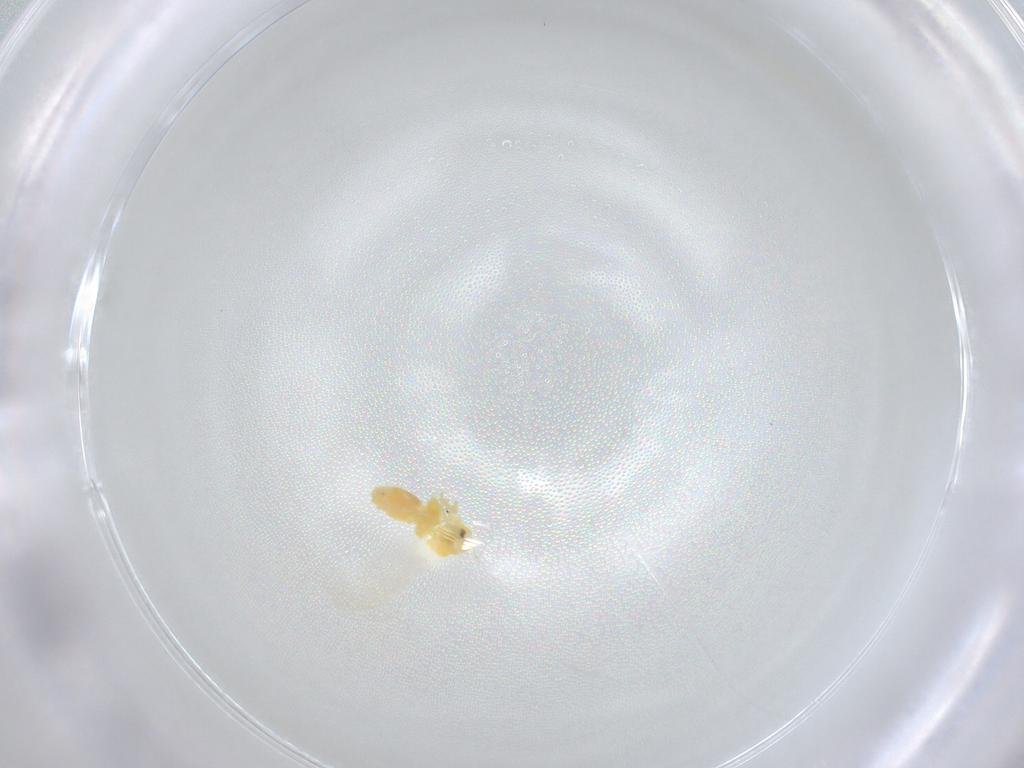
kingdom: Animalia
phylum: Arthropoda
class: Insecta
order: Hemiptera
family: Aleyrodidae
